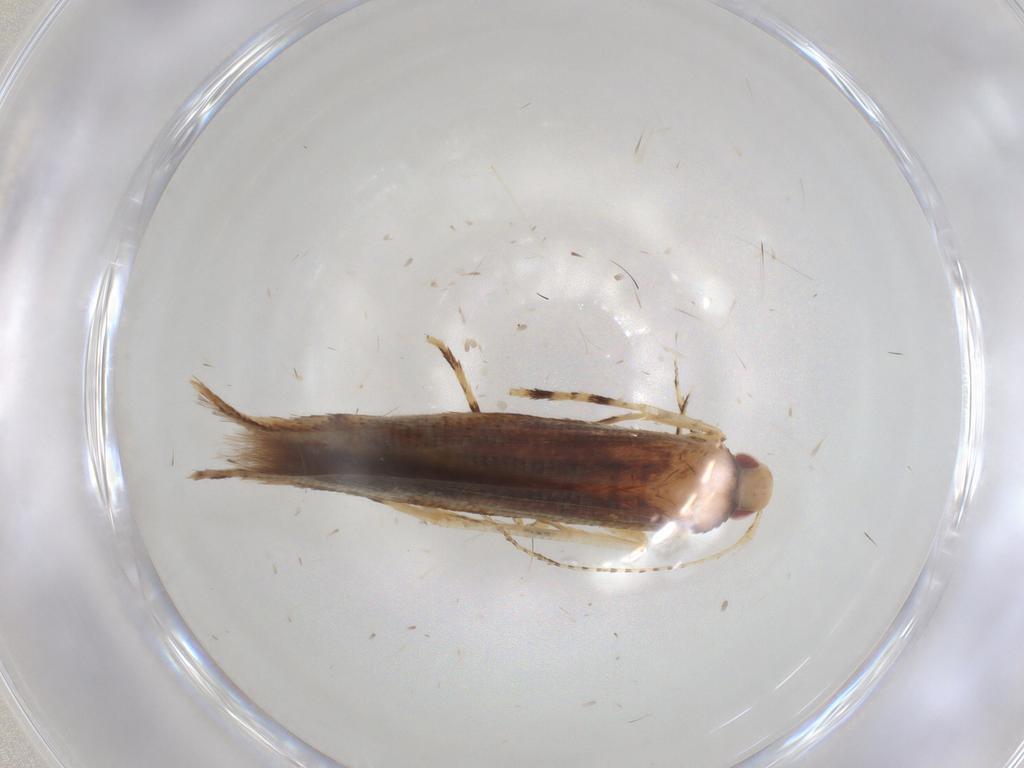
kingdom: Animalia
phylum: Arthropoda
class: Insecta
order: Lepidoptera
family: Cosmopterigidae
